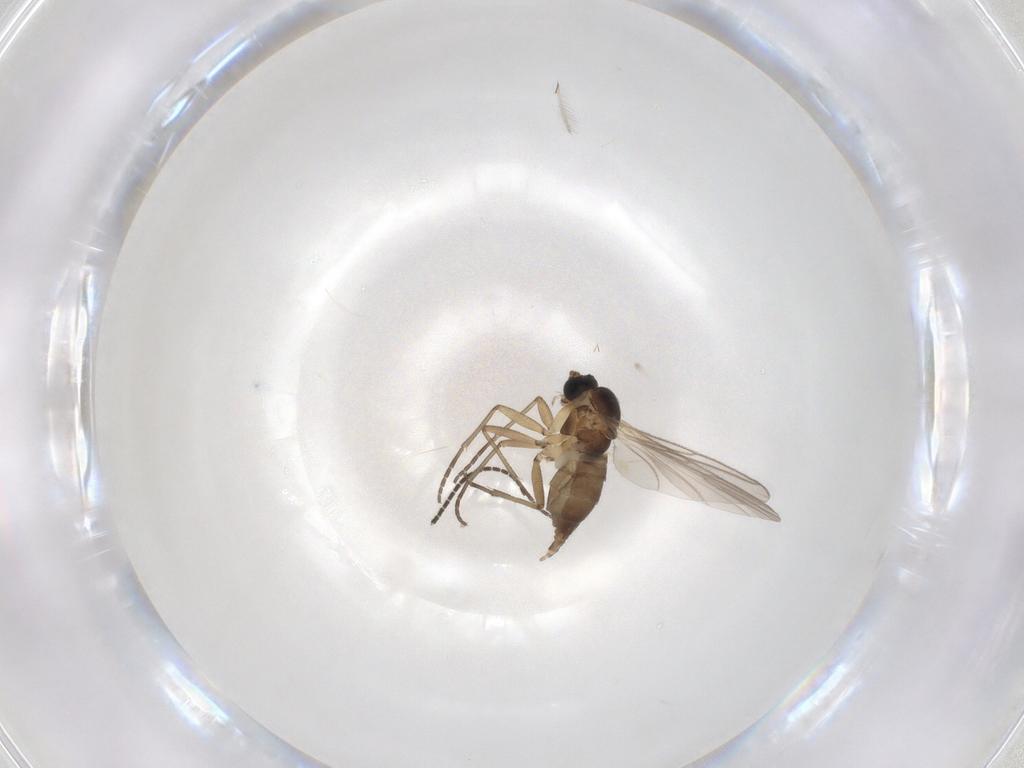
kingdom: Animalia
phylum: Arthropoda
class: Insecta
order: Diptera
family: Sciaridae
